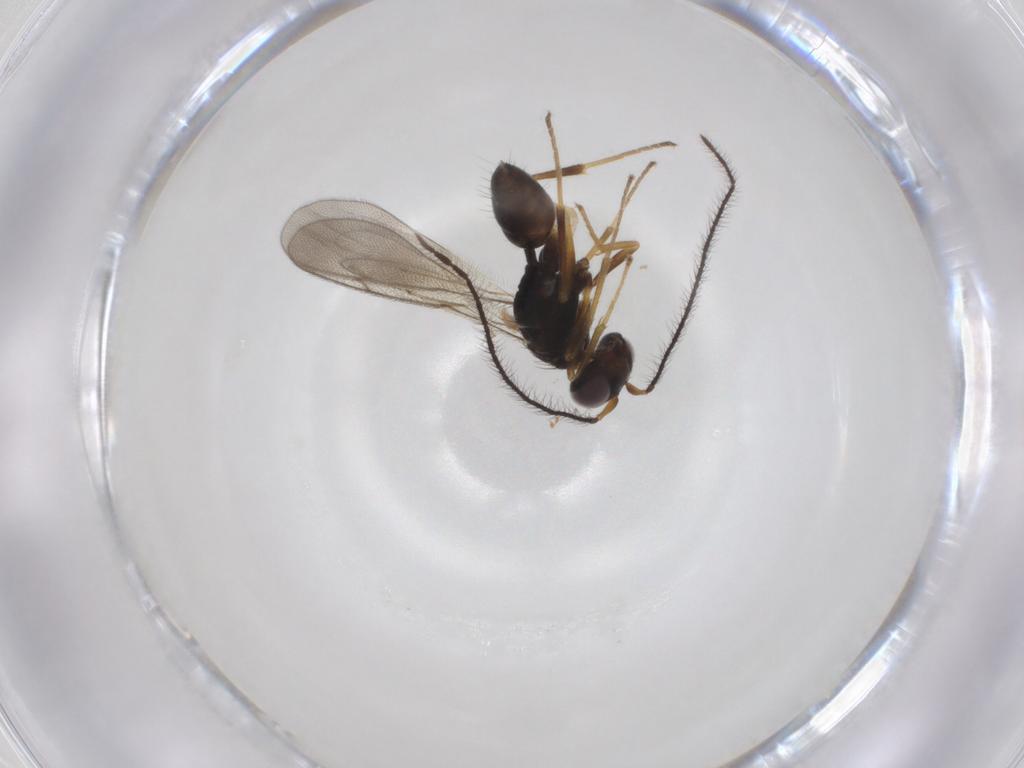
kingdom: Animalia
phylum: Arthropoda
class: Insecta
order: Hymenoptera
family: Diparidae
